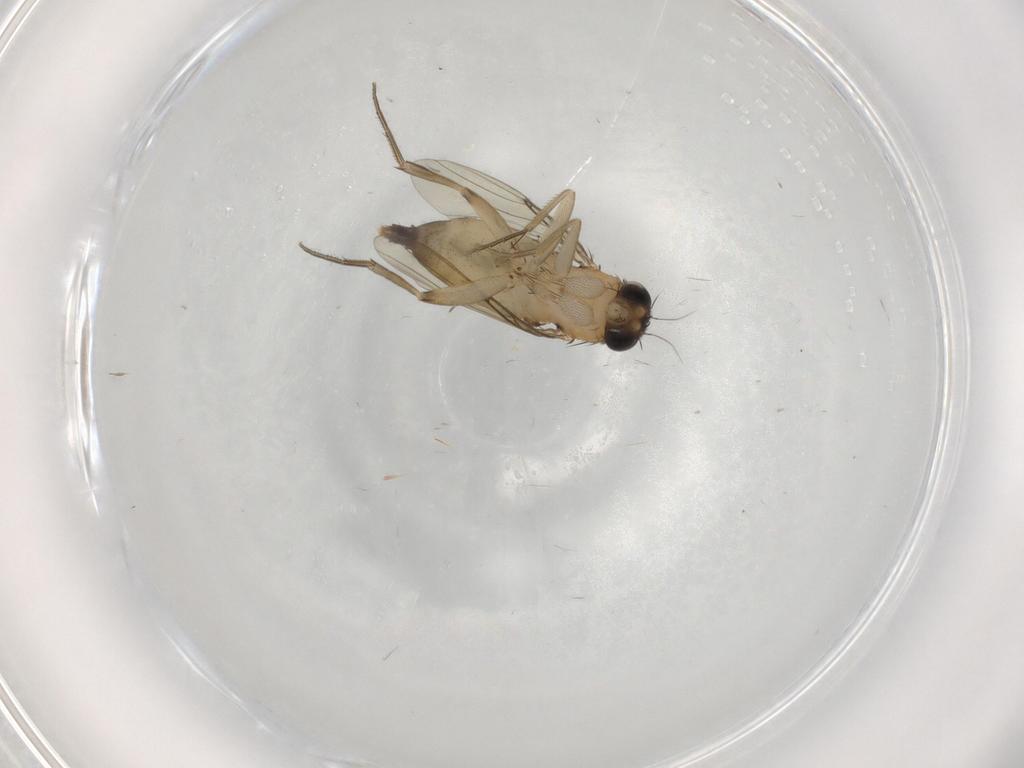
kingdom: Animalia
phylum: Arthropoda
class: Insecta
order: Diptera
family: Phoridae
